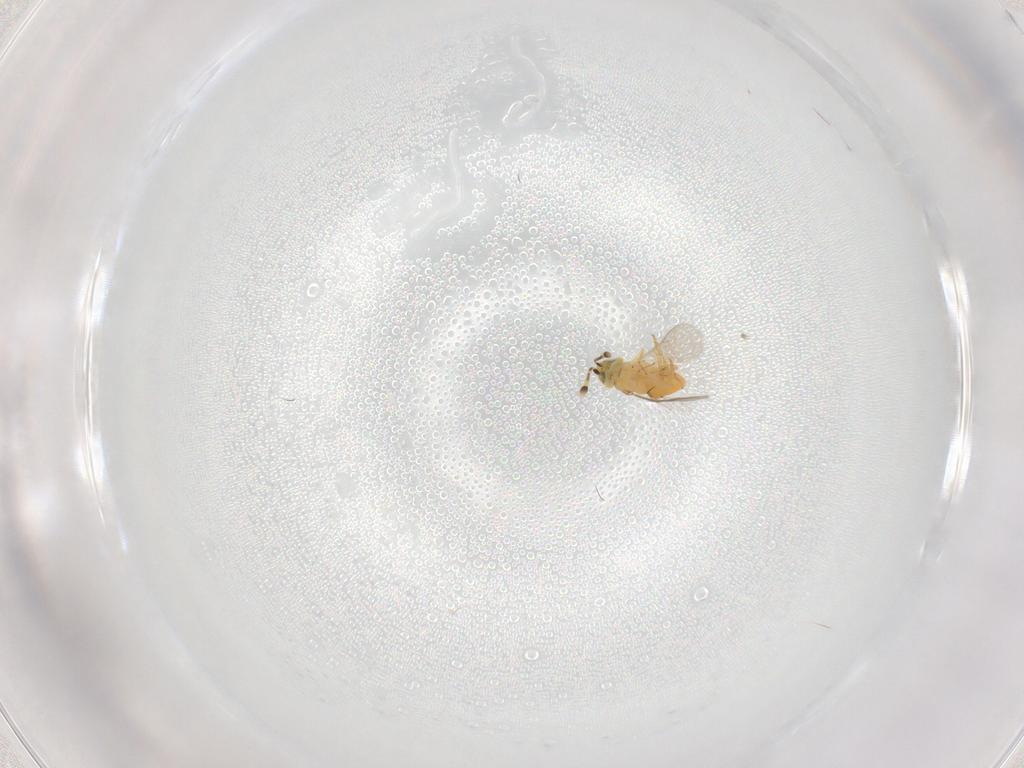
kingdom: Animalia
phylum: Arthropoda
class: Insecta
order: Hymenoptera
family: Encyrtidae
